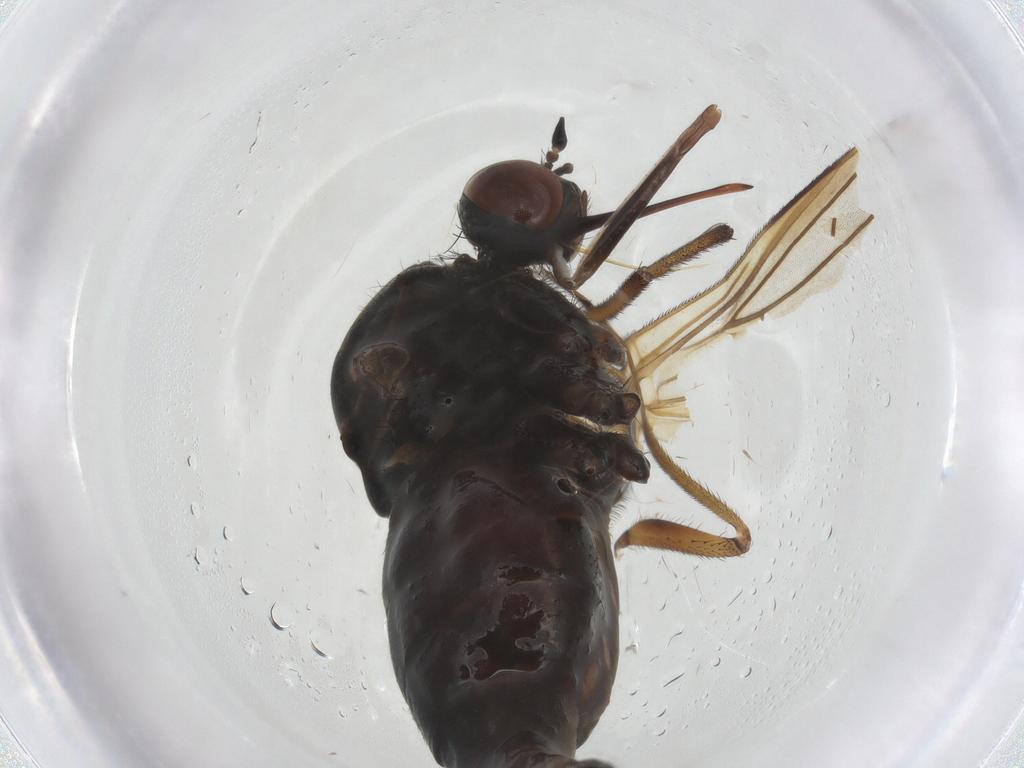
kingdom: Animalia
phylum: Arthropoda
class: Insecta
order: Diptera
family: Empididae
